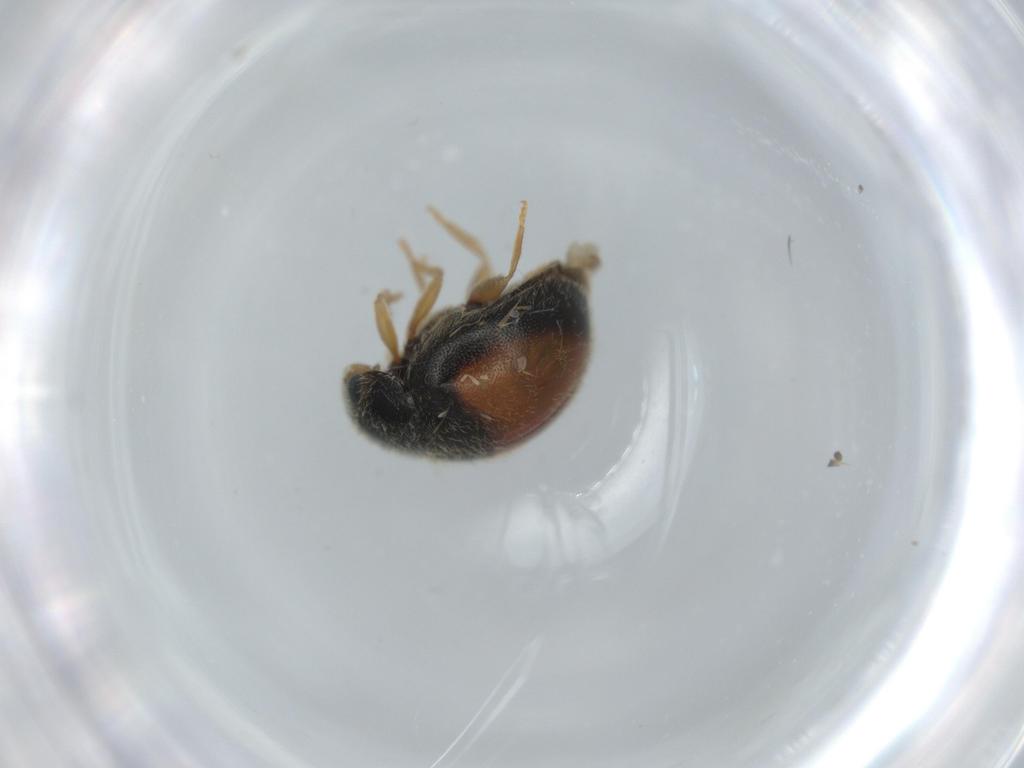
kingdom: Animalia
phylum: Arthropoda
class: Insecta
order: Coleoptera
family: Coccinellidae
